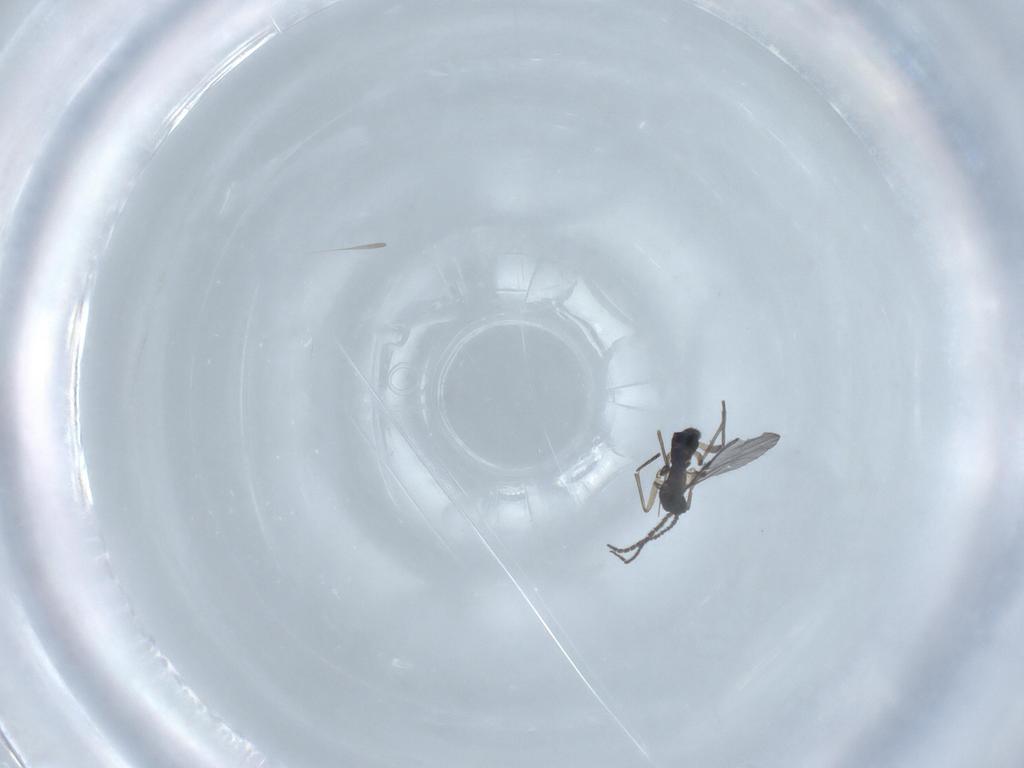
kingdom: Animalia
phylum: Arthropoda
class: Insecta
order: Diptera
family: Sciaridae
